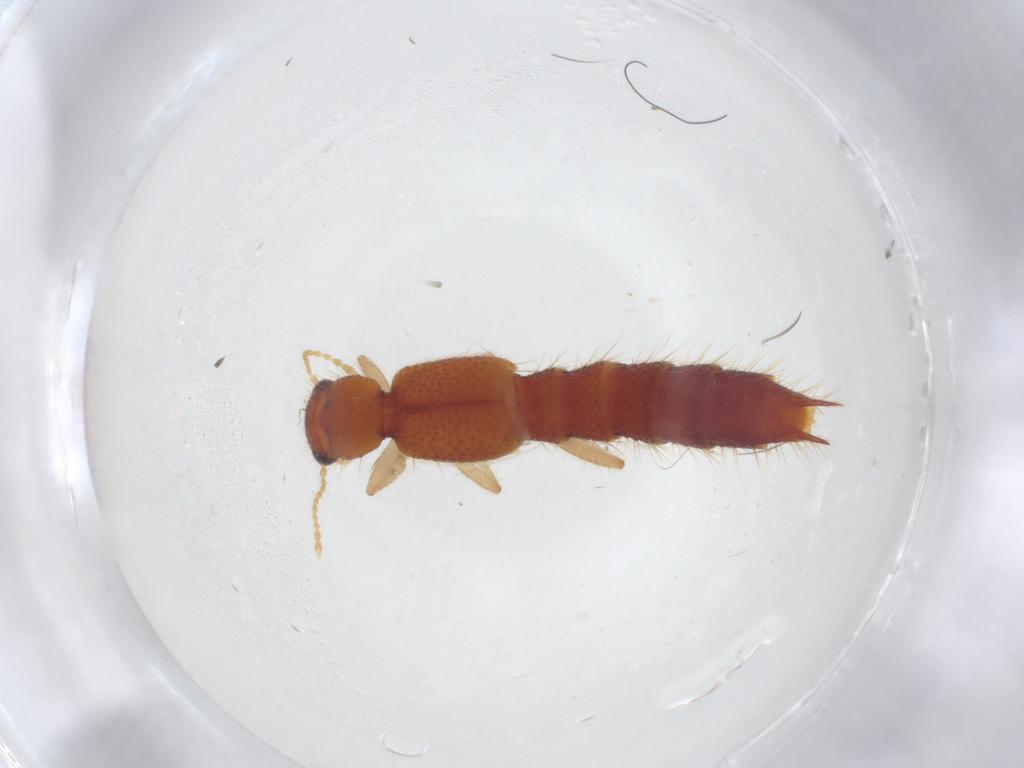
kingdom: Animalia
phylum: Arthropoda
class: Insecta
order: Coleoptera
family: Staphylinidae
